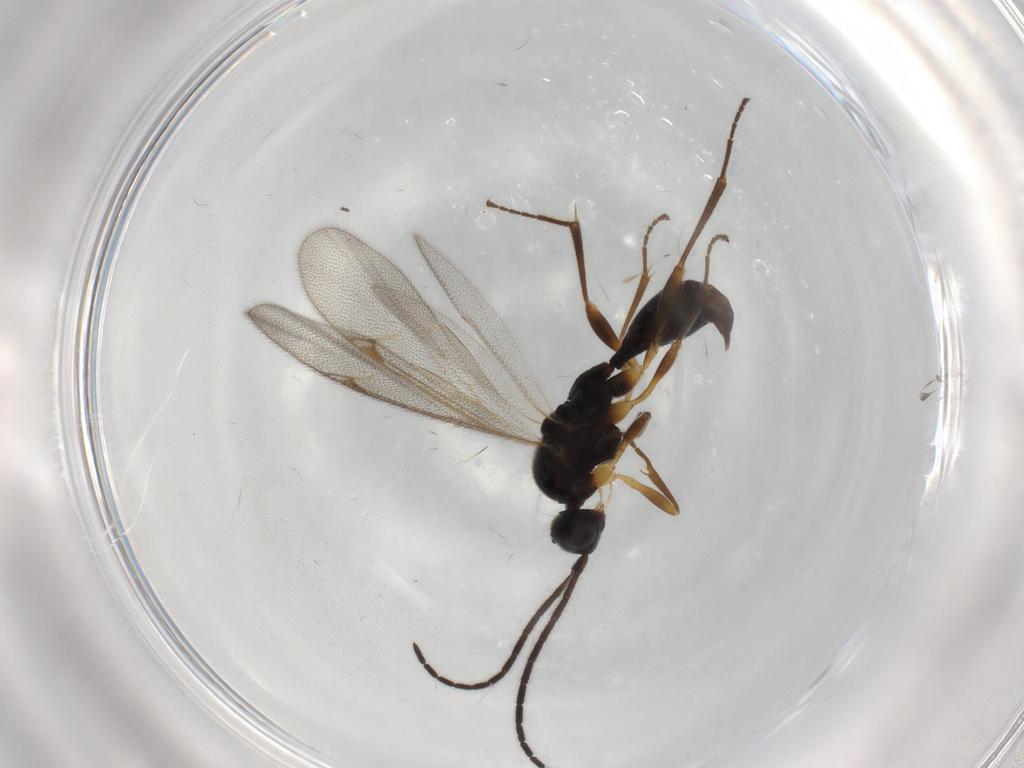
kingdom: Animalia
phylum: Arthropoda
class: Insecta
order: Hymenoptera
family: Proctotrupidae
